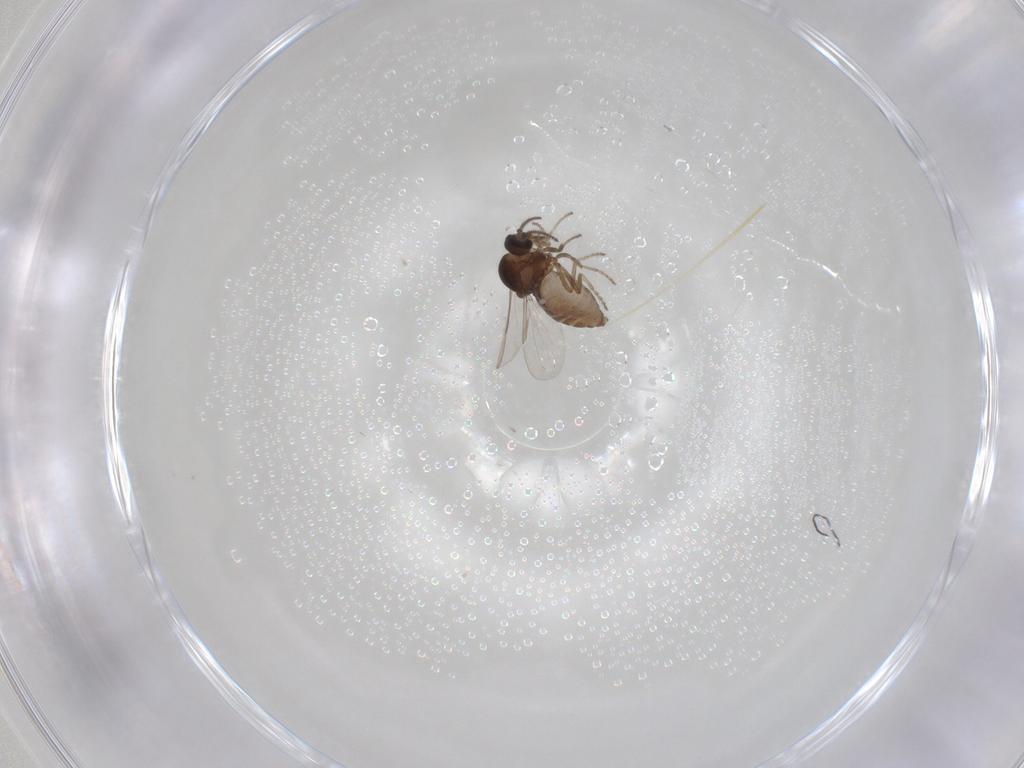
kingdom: Animalia
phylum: Arthropoda
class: Insecta
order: Diptera
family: Ceratopogonidae
